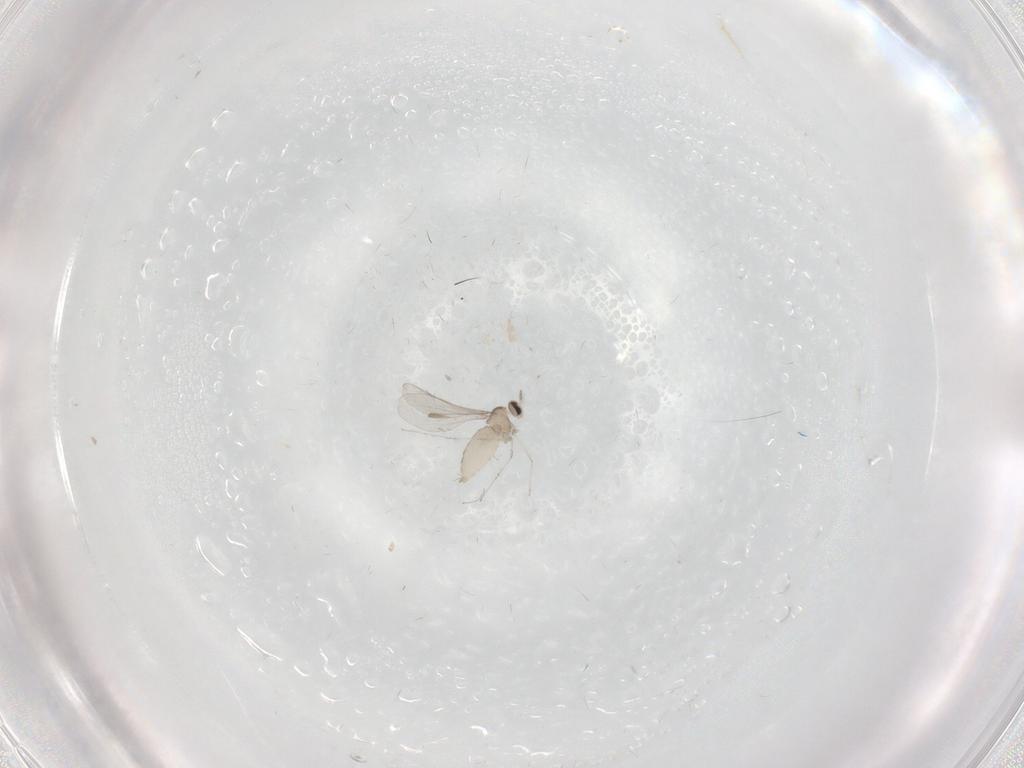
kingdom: Animalia
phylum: Arthropoda
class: Insecta
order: Diptera
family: Cecidomyiidae
